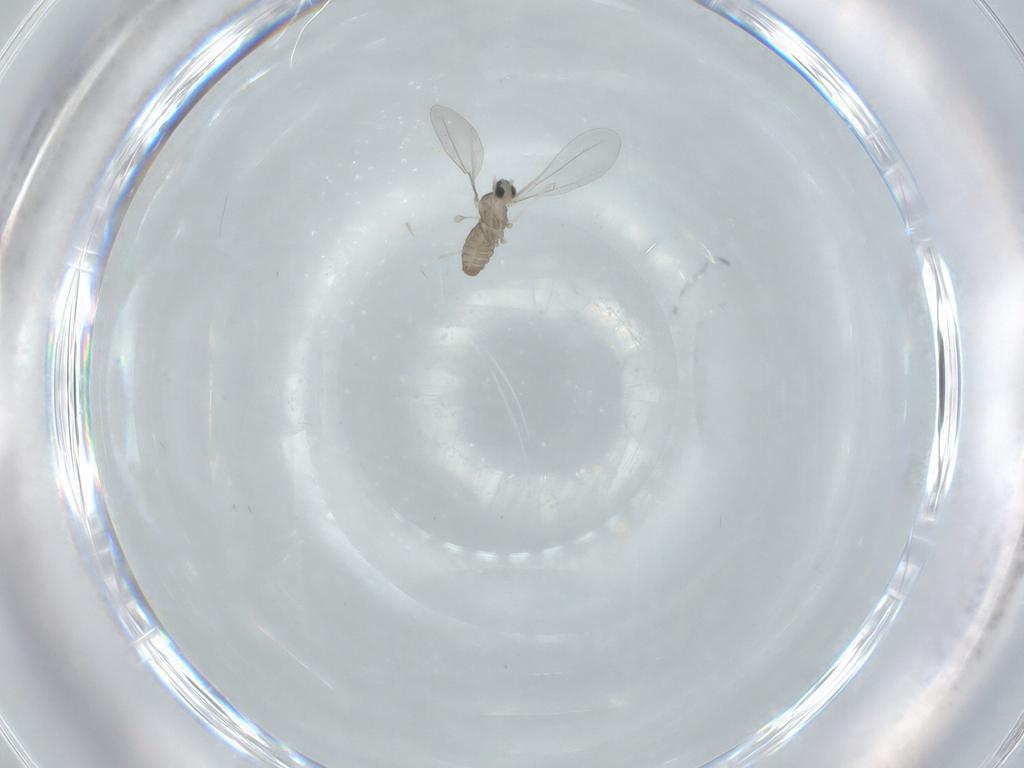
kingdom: Animalia
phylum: Arthropoda
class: Insecta
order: Diptera
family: Cecidomyiidae
